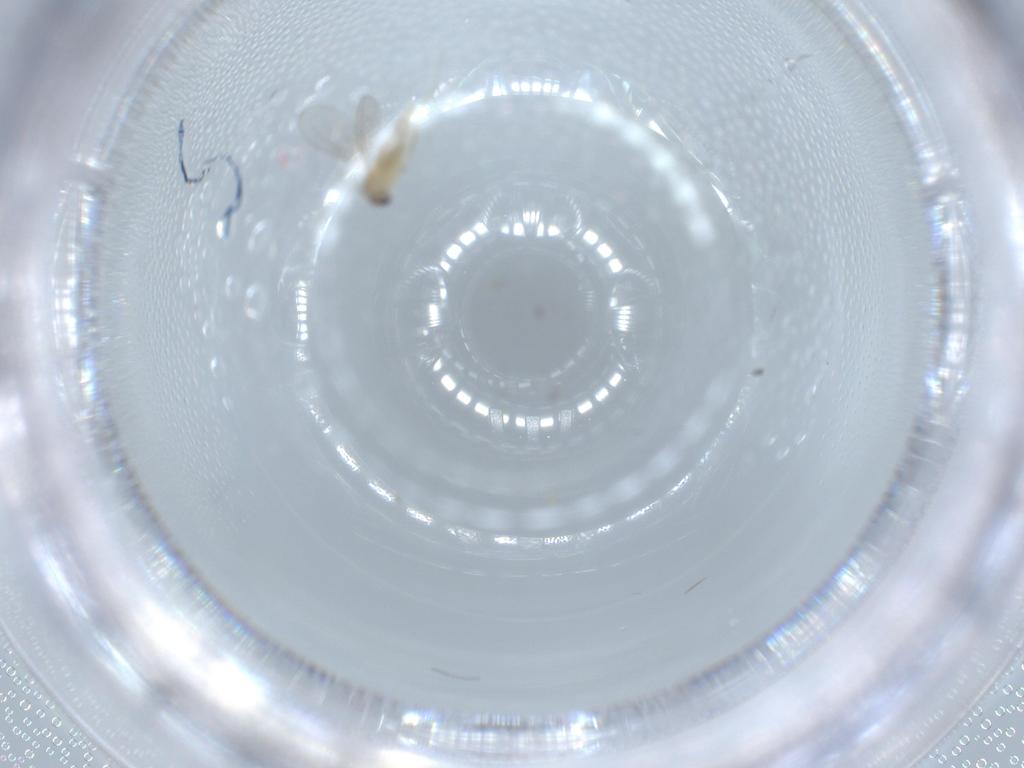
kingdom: Animalia
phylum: Arthropoda
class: Insecta
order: Diptera
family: Cecidomyiidae
